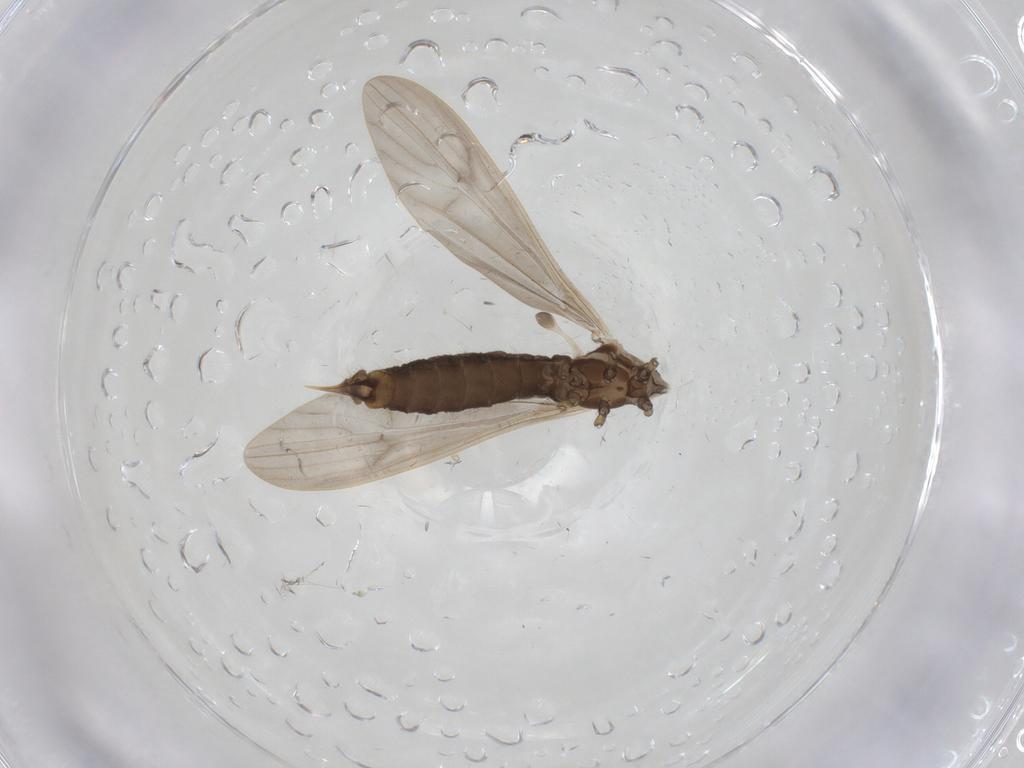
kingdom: Animalia
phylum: Arthropoda
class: Insecta
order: Diptera
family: Limoniidae
